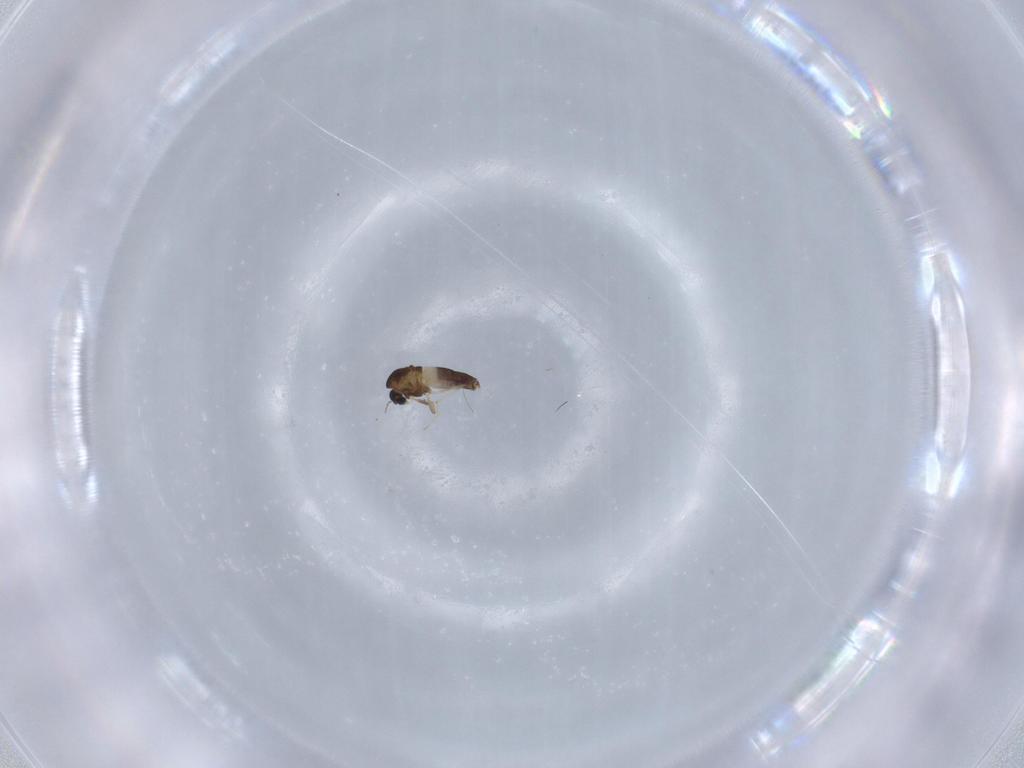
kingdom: Animalia
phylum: Arthropoda
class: Insecta
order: Diptera
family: Chironomidae
